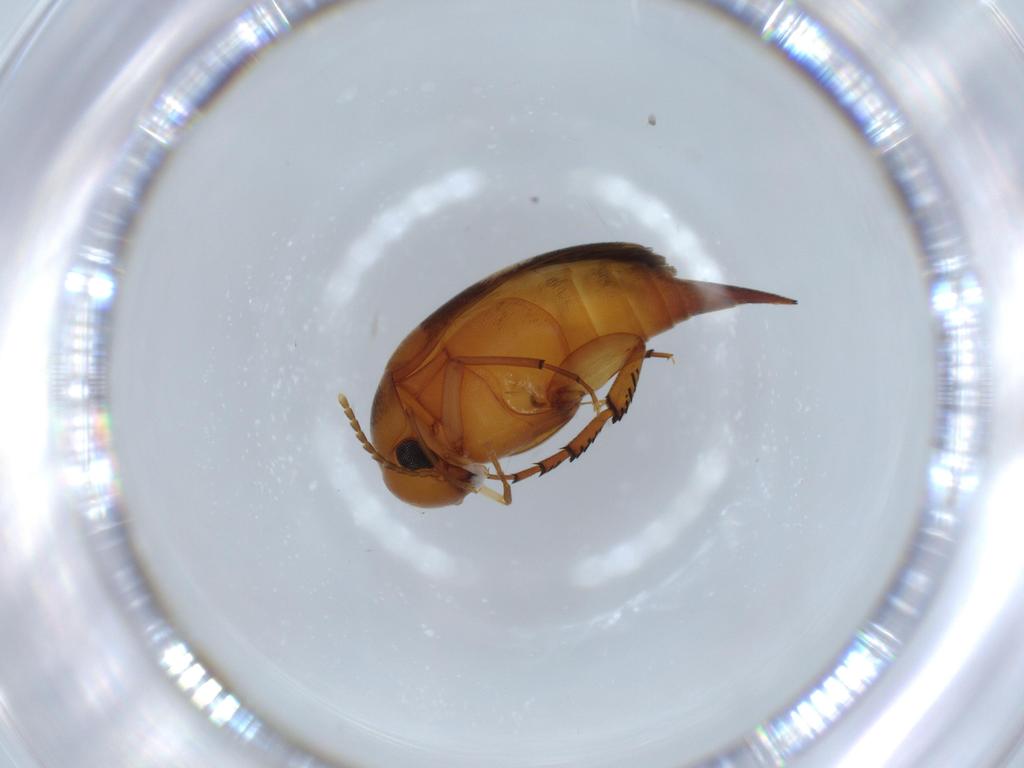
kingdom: Animalia
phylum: Arthropoda
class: Insecta
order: Coleoptera
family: Mordellidae
